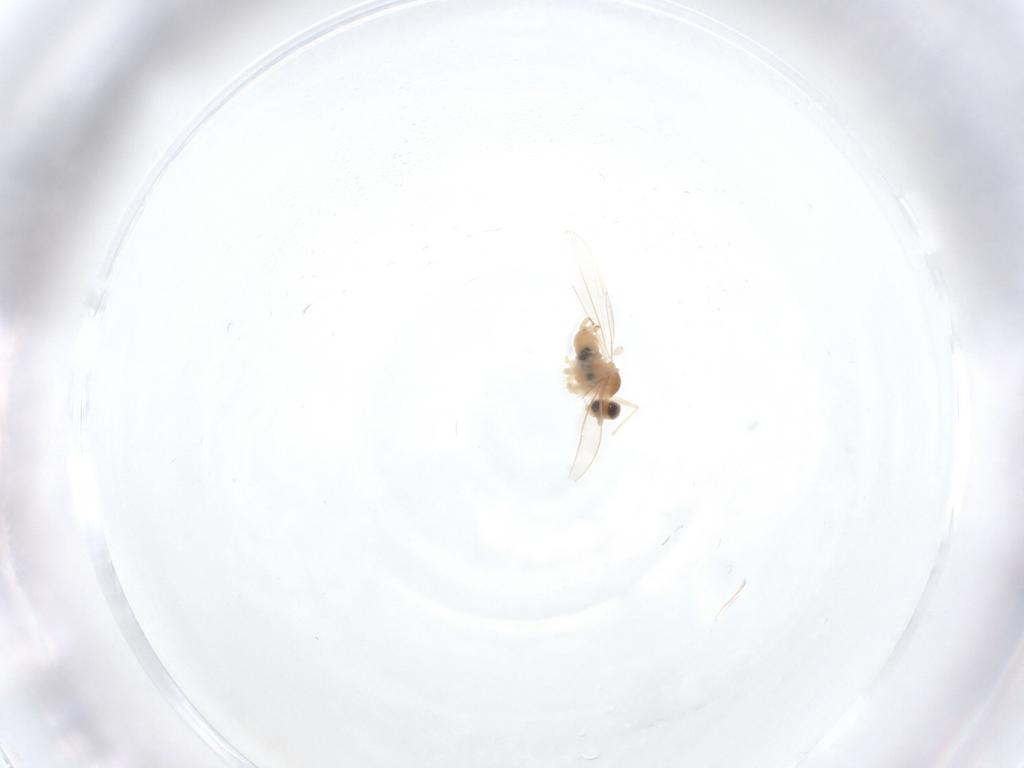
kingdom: Animalia
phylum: Arthropoda
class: Insecta
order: Diptera
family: Cecidomyiidae
